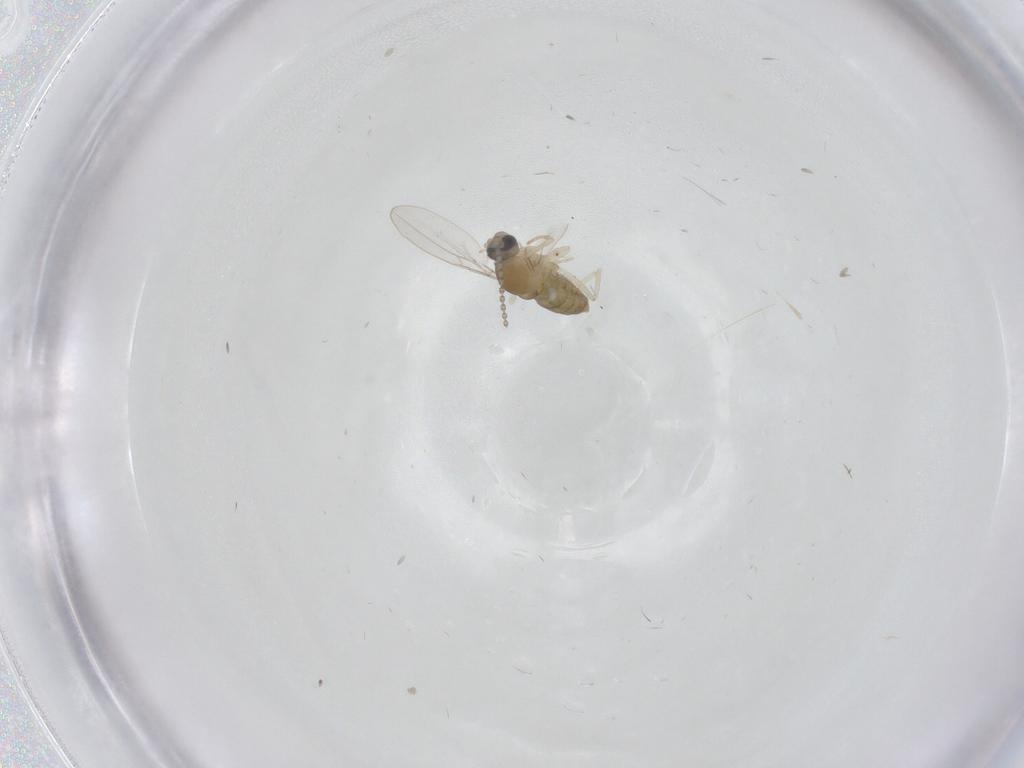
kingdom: Animalia
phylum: Arthropoda
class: Insecta
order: Diptera
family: Cecidomyiidae
